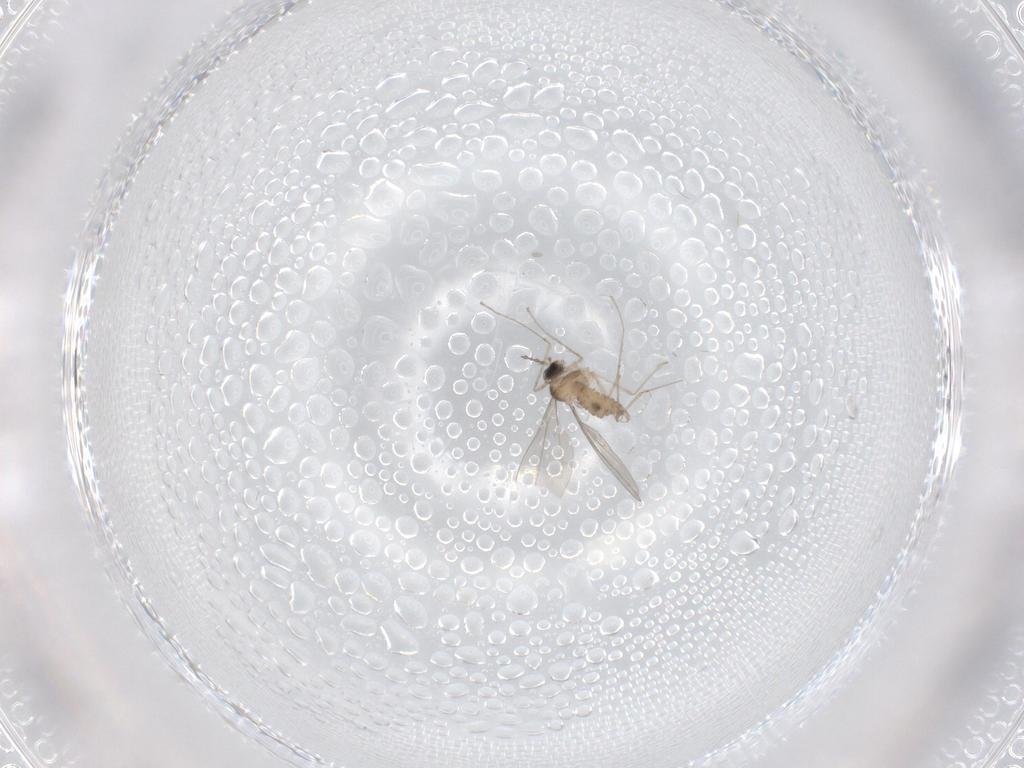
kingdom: Animalia
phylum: Arthropoda
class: Insecta
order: Diptera
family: Cecidomyiidae
